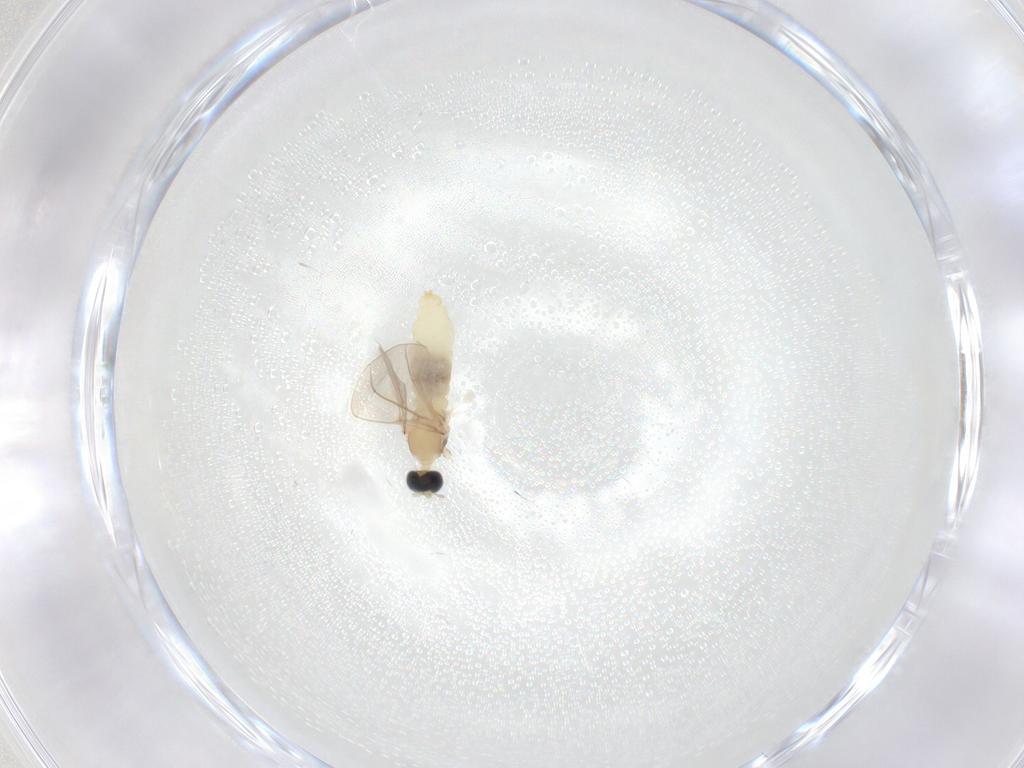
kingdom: Animalia
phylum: Arthropoda
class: Insecta
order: Diptera
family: Cecidomyiidae
